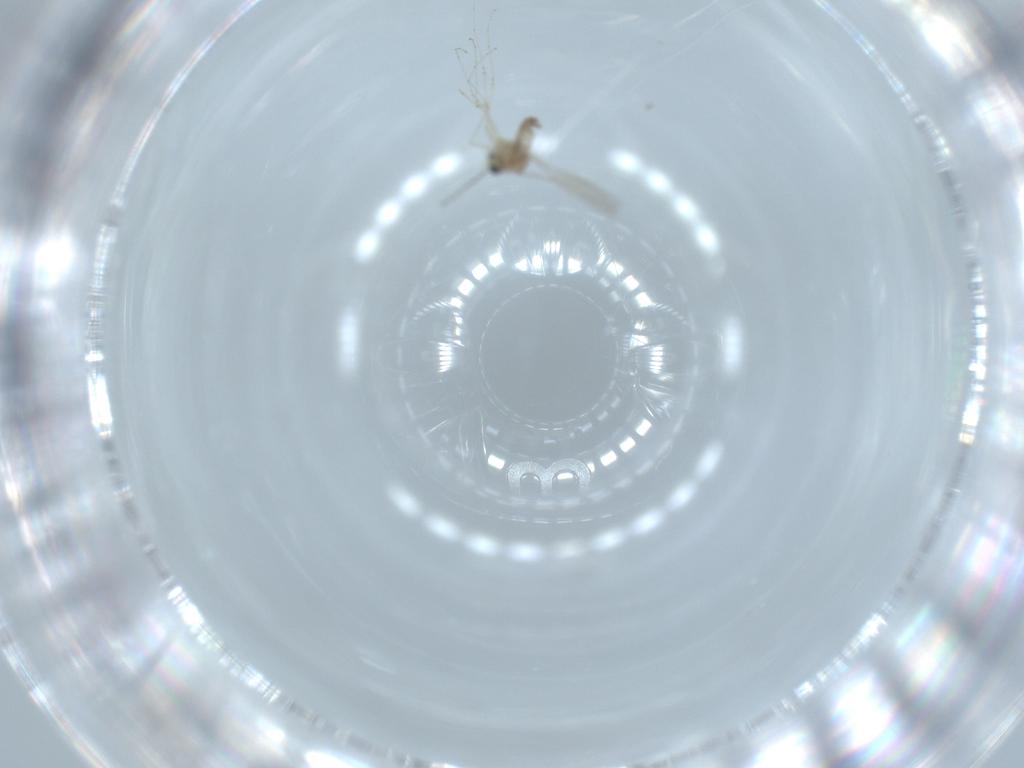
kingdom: Animalia
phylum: Arthropoda
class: Insecta
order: Diptera
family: Cecidomyiidae
